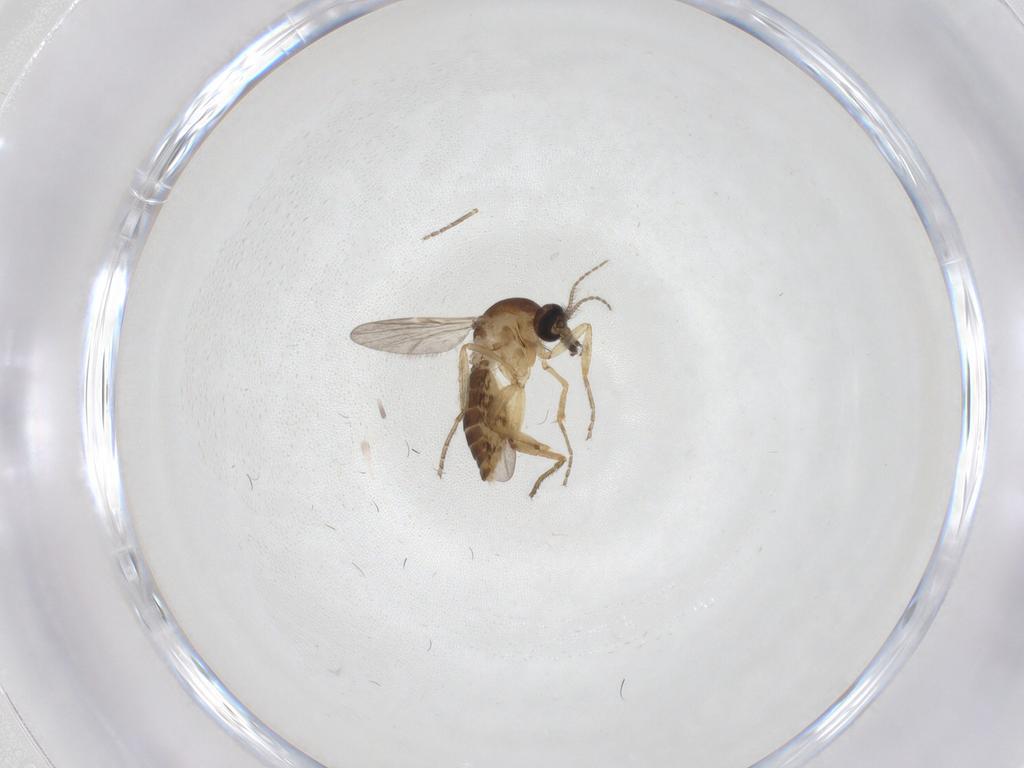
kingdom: Animalia
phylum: Arthropoda
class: Insecta
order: Diptera
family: Ceratopogonidae
